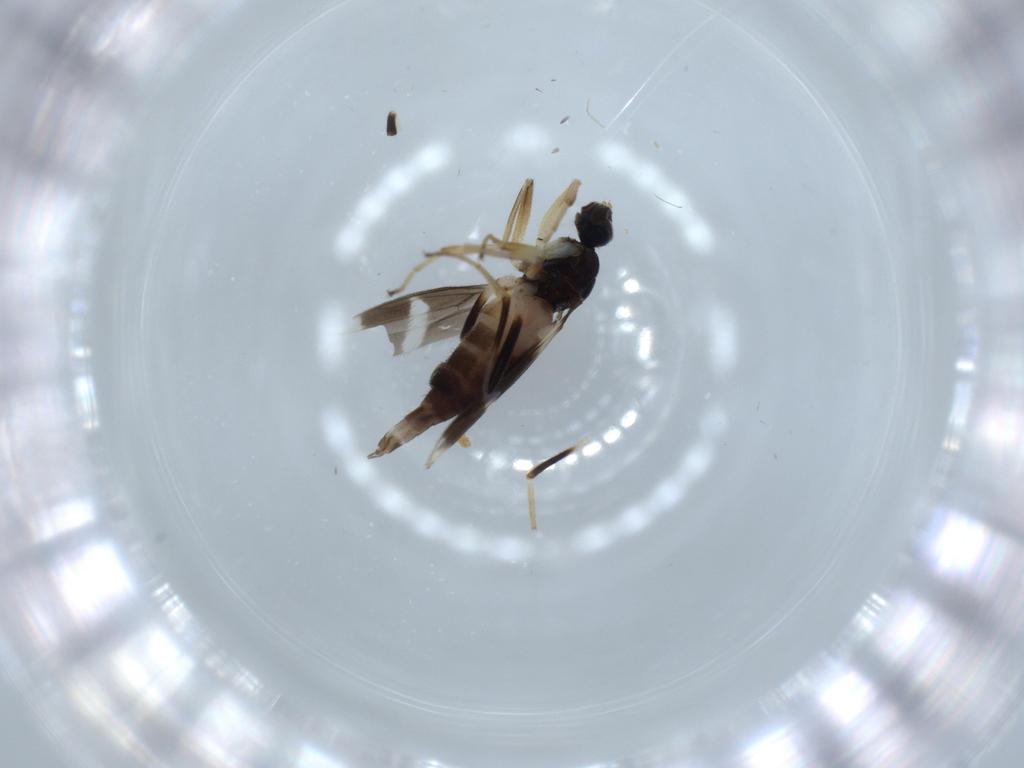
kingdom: Animalia
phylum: Arthropoda
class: Insecta
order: Diptera
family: Hybotidae
